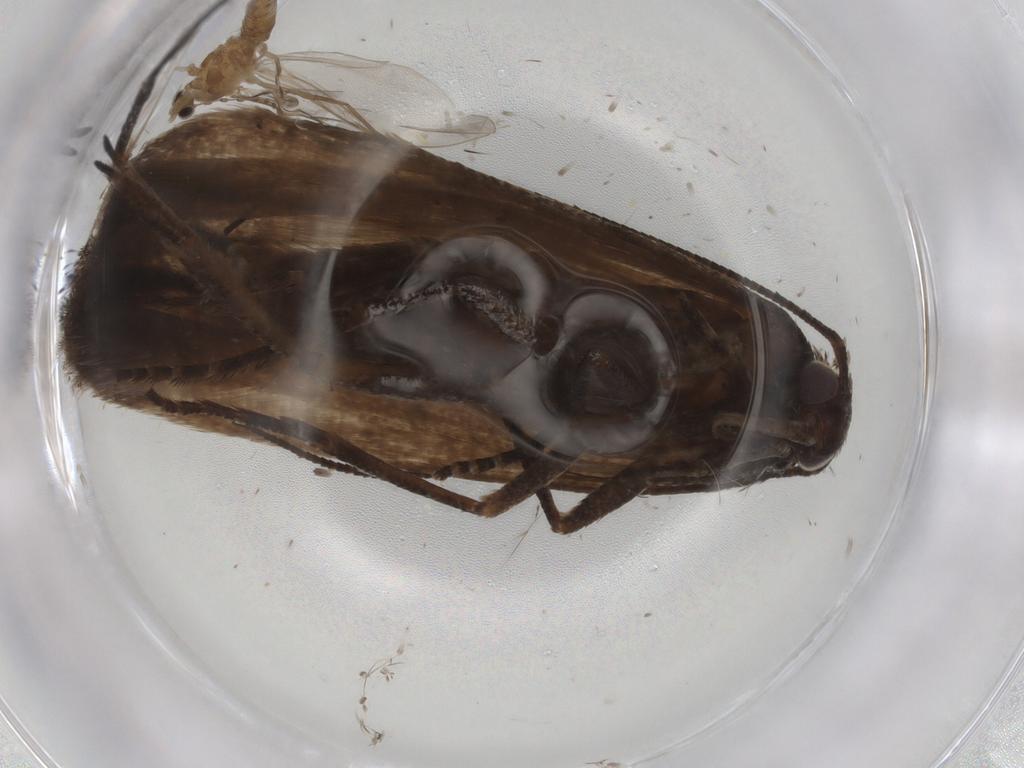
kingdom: Animalia
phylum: Arthropoda
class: Insecta
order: Lepidoptera
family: Gelechiidae
